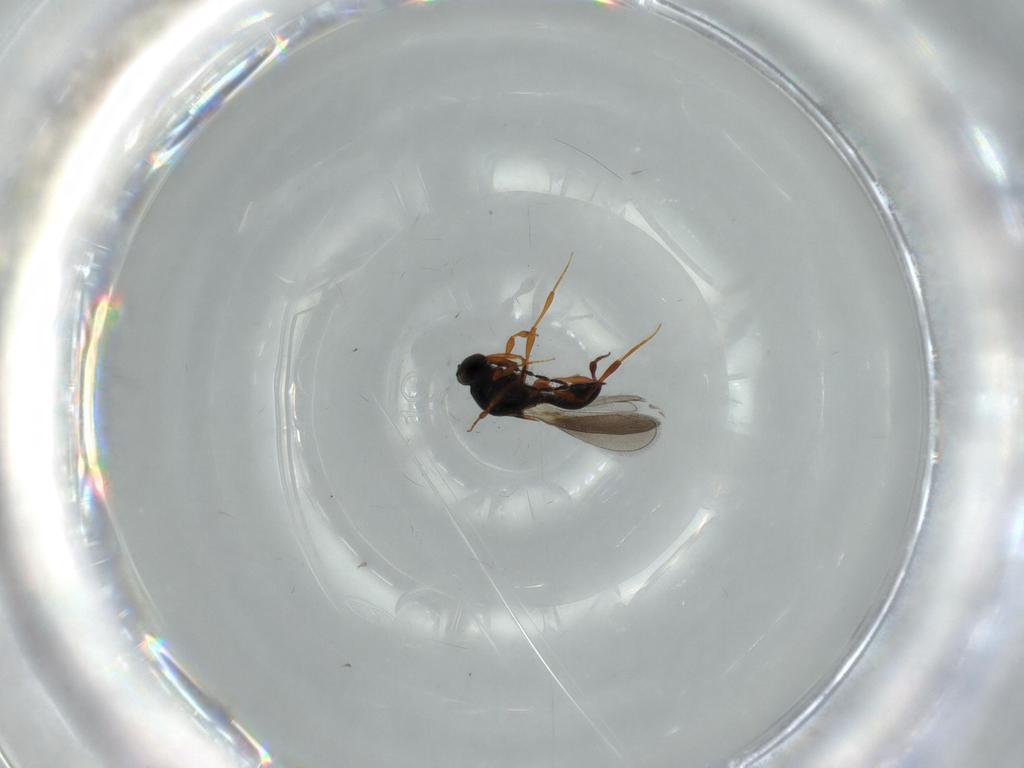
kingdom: Animalia
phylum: Arthropoda
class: Insecta
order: Hymenoptera
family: Platygastridae
